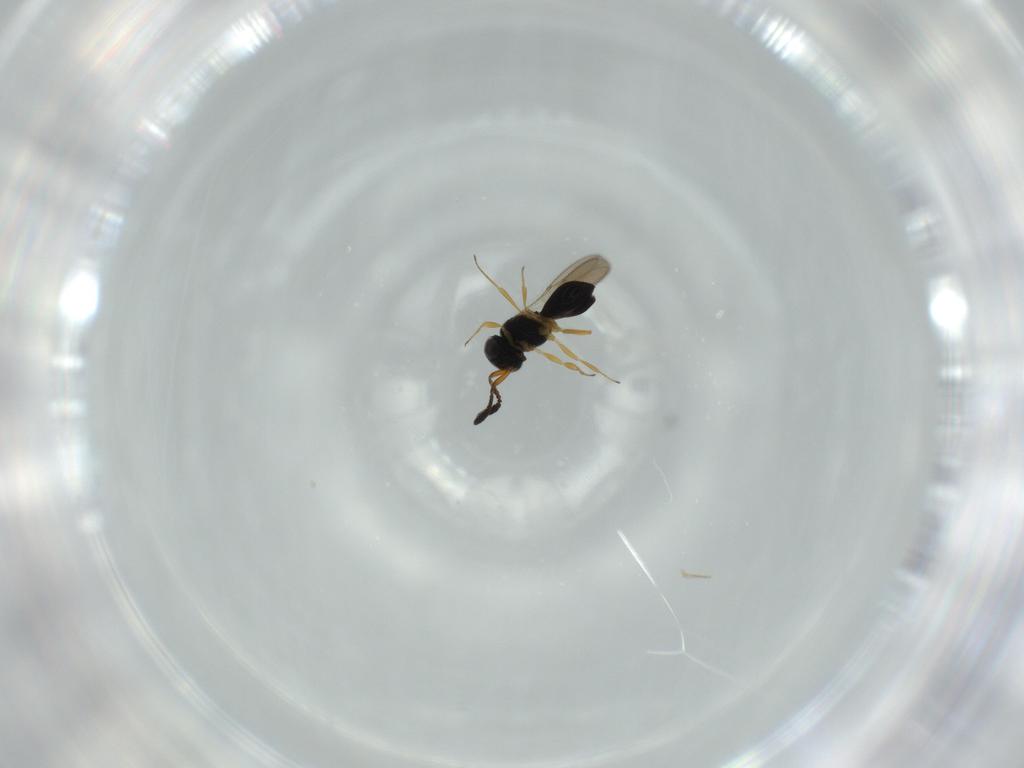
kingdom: Animalia
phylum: Arthropoda
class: Insecta
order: Hymenoptera
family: Scelionidae
